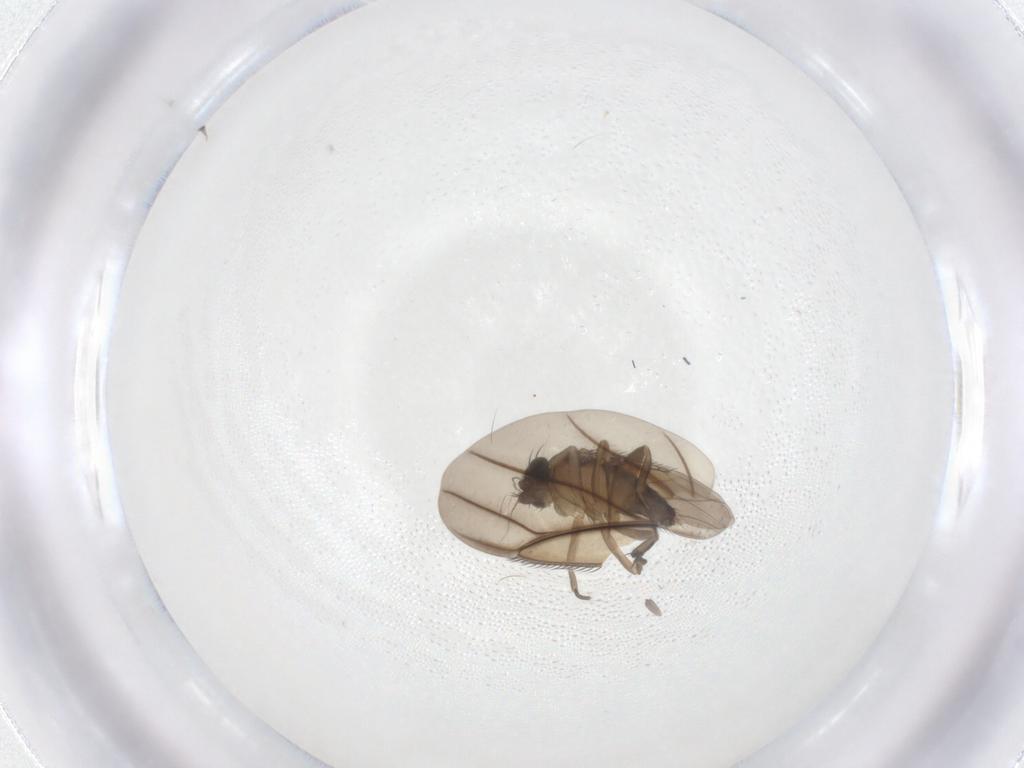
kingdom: Animalia
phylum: Arthropoda
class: Insecta
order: Diptera
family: Phoridae
